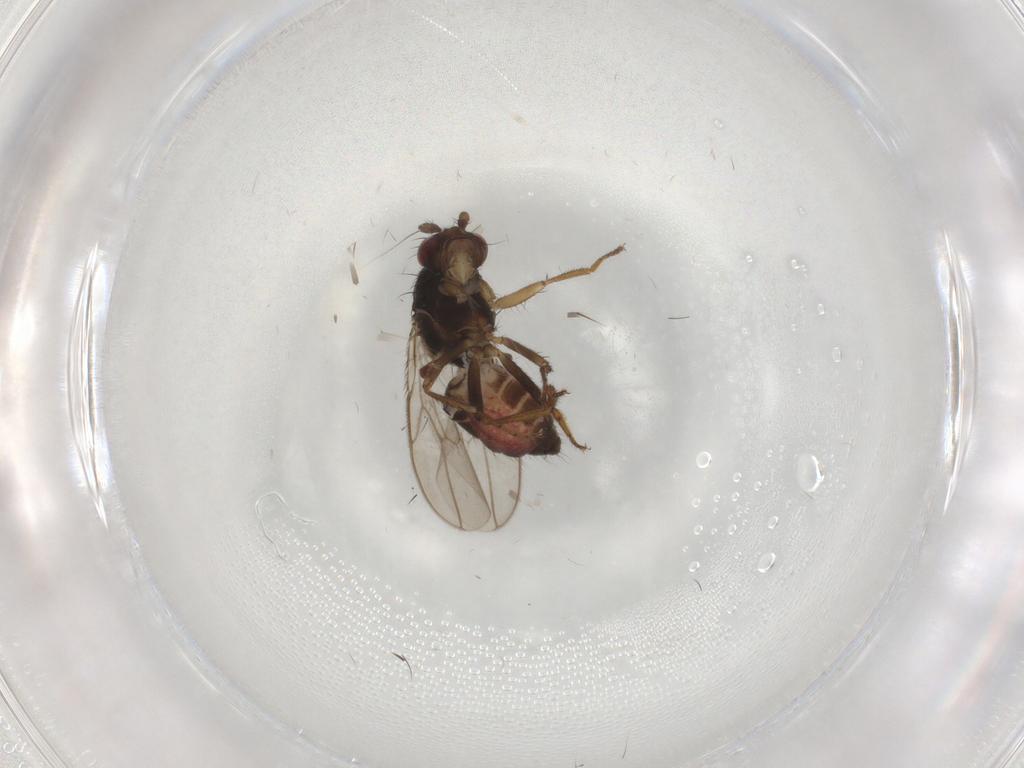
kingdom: Animalia
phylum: Arthropoda
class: Insecta
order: Diptera
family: Sphaeroceridae
